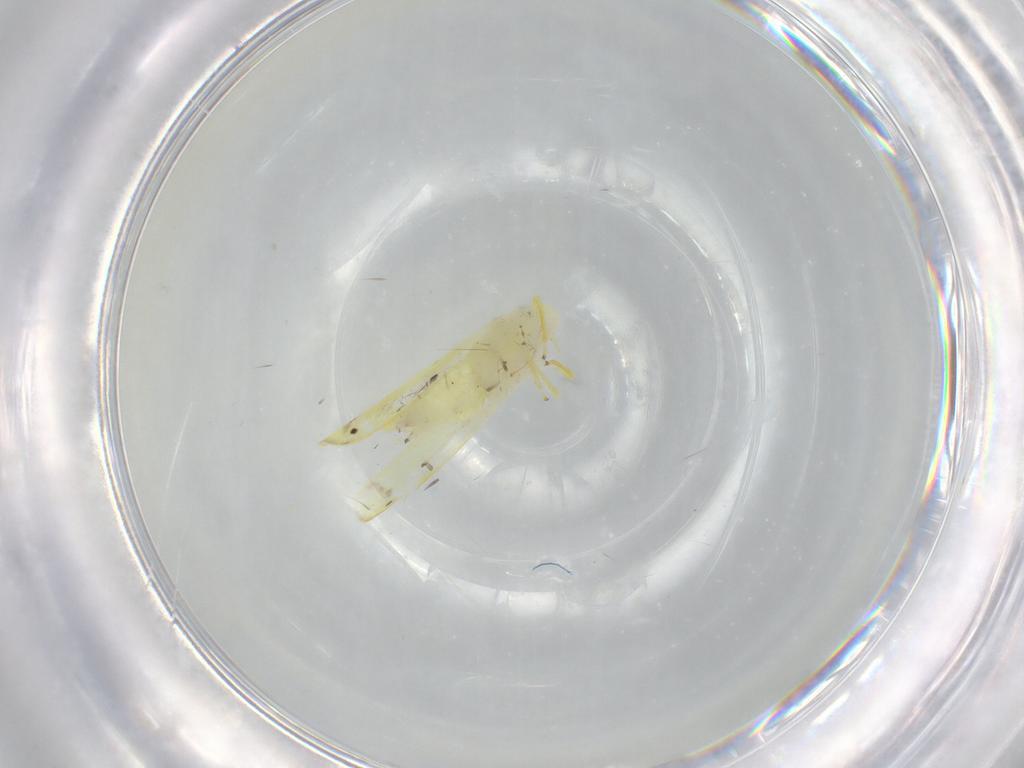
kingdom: Animalia
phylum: Arthropoda
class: Insecta
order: Hemiptera
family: Cicadellidae
